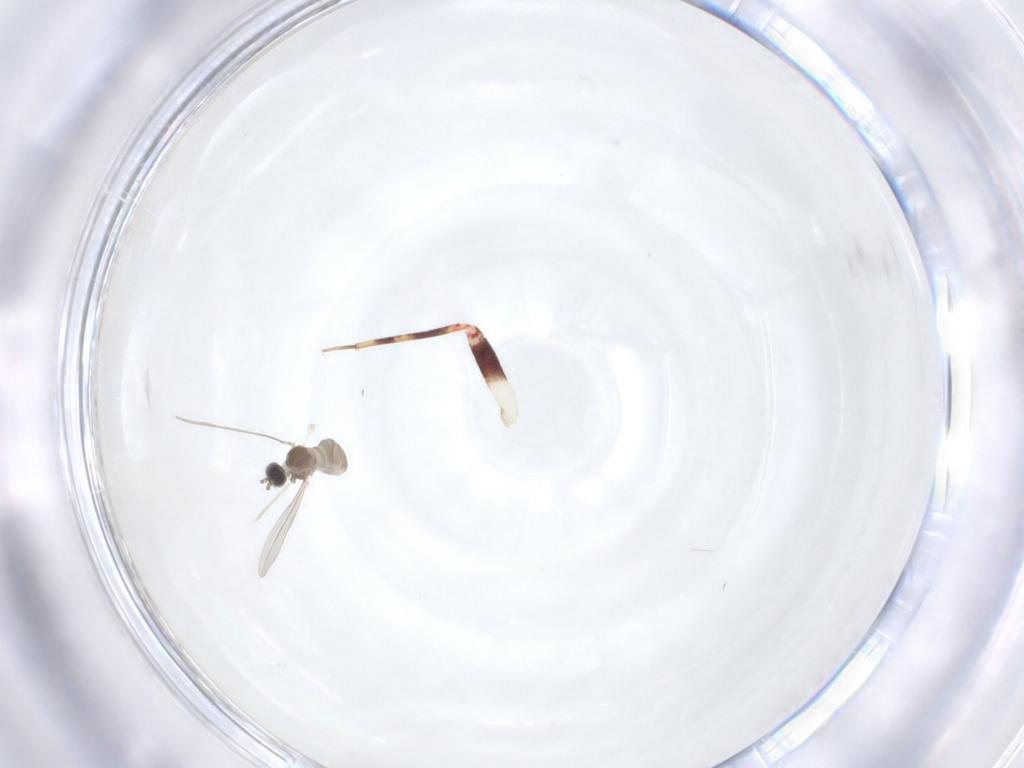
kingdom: Animalia
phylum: Arthropoda
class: Insecta
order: Diptera
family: Cecidomyiidae
